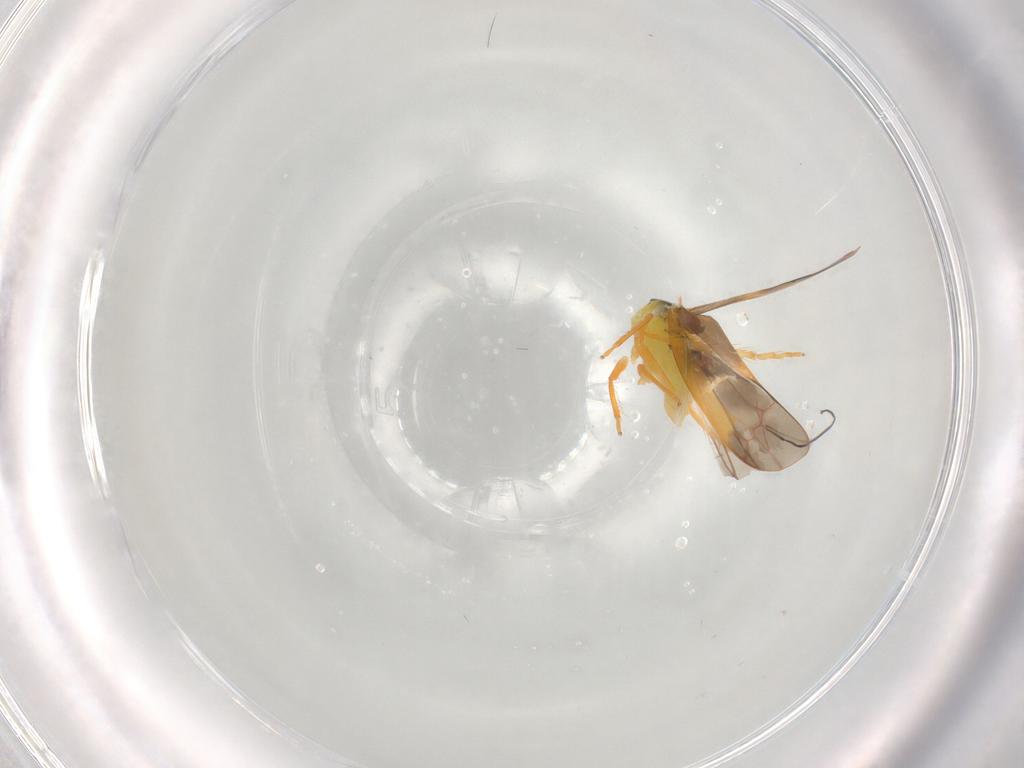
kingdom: Animalia
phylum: Arthropoda
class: Insecta
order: Hemiptera
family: Cicadellidae
